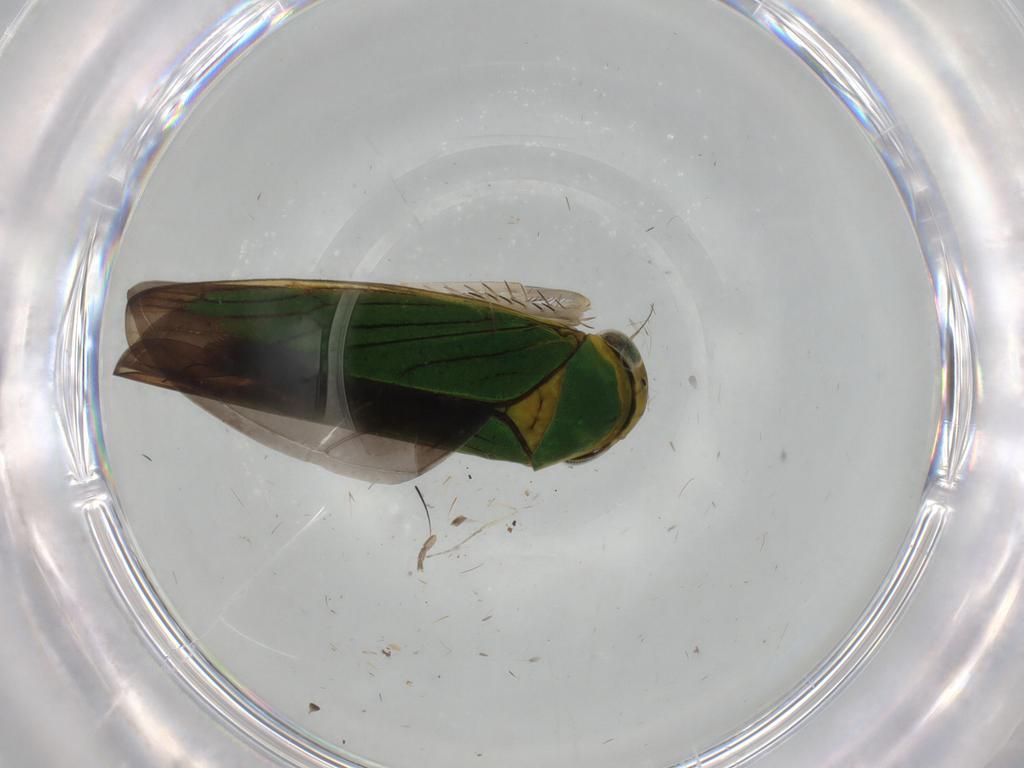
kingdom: Animalia
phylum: Arthropoda
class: Insecta
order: Hemiptera
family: Cicadellidae
